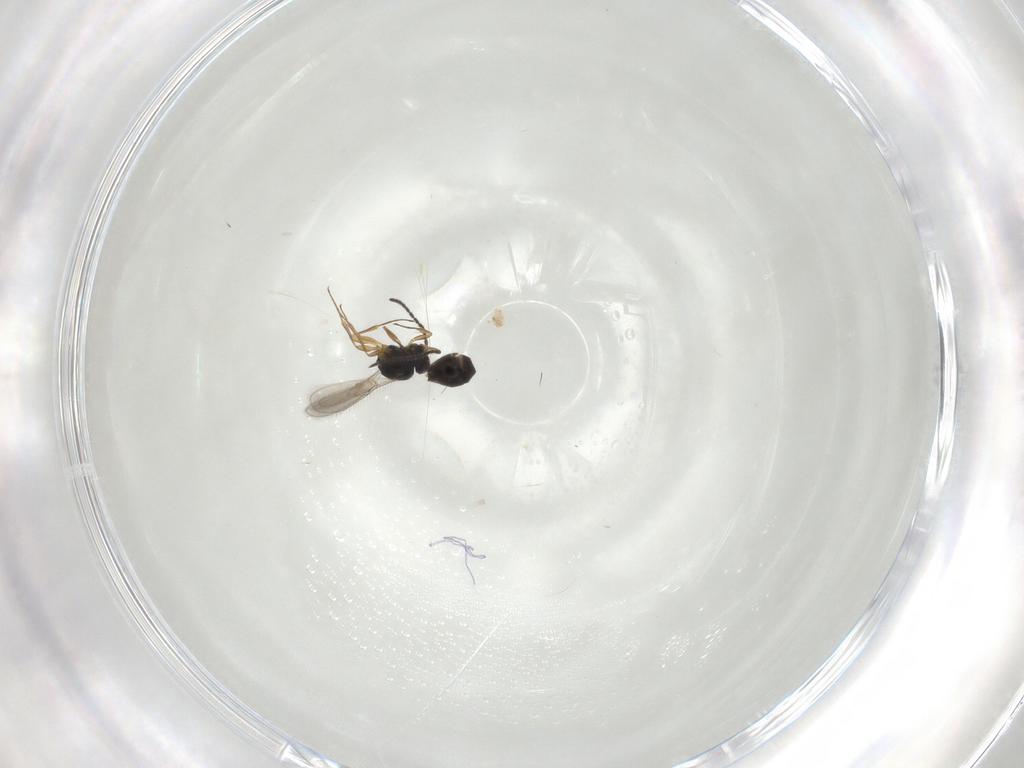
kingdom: Animalia
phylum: Arthropoda
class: Insecta
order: Hymenoptera
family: Scelionidae
